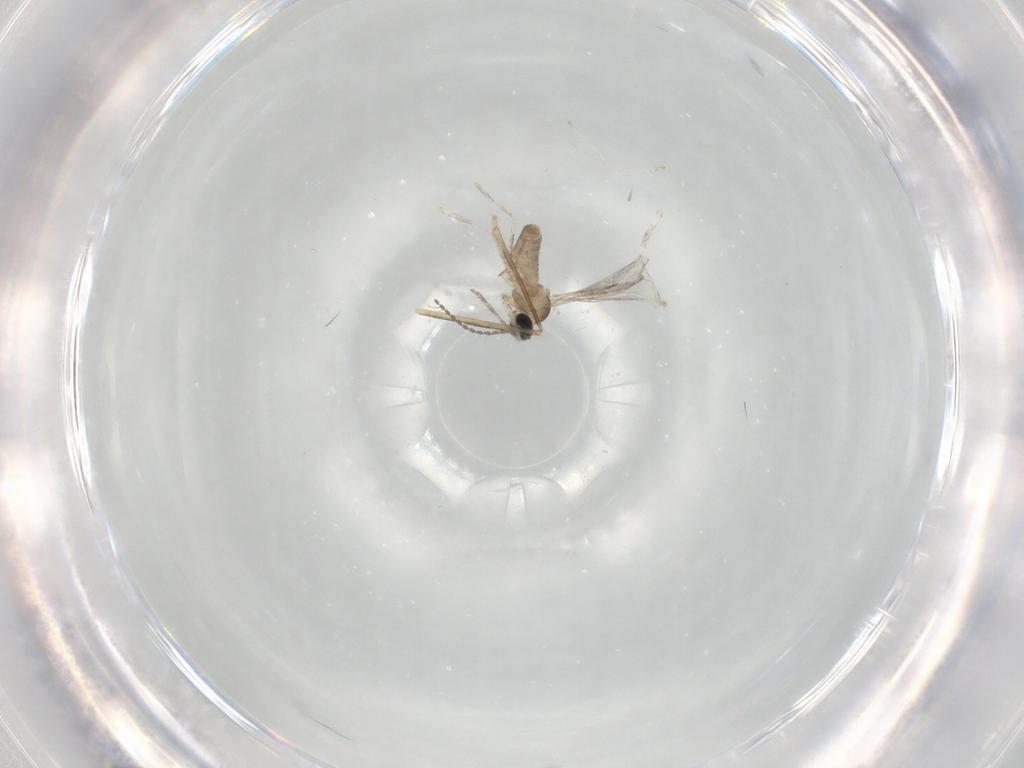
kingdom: Animalia
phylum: Arthropoda
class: Insecta
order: Diptera
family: Cecidomyiidae
